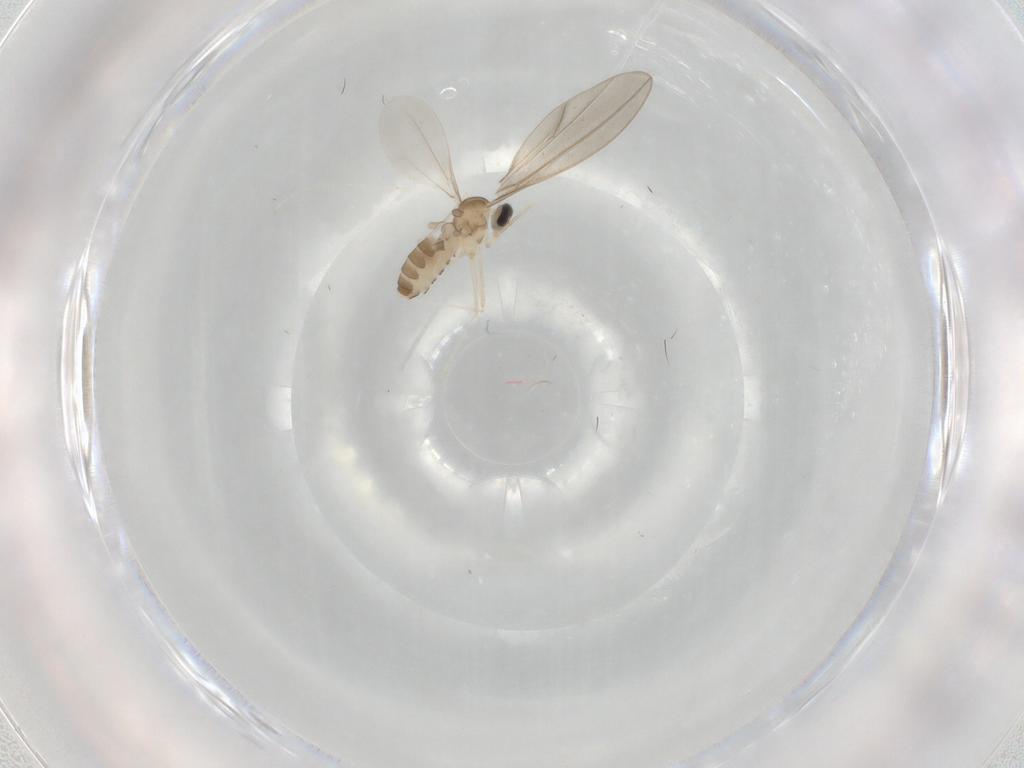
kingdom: Animalia
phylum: Arthropoda
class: Insecta
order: Diptera
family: Cecidomyiidae
